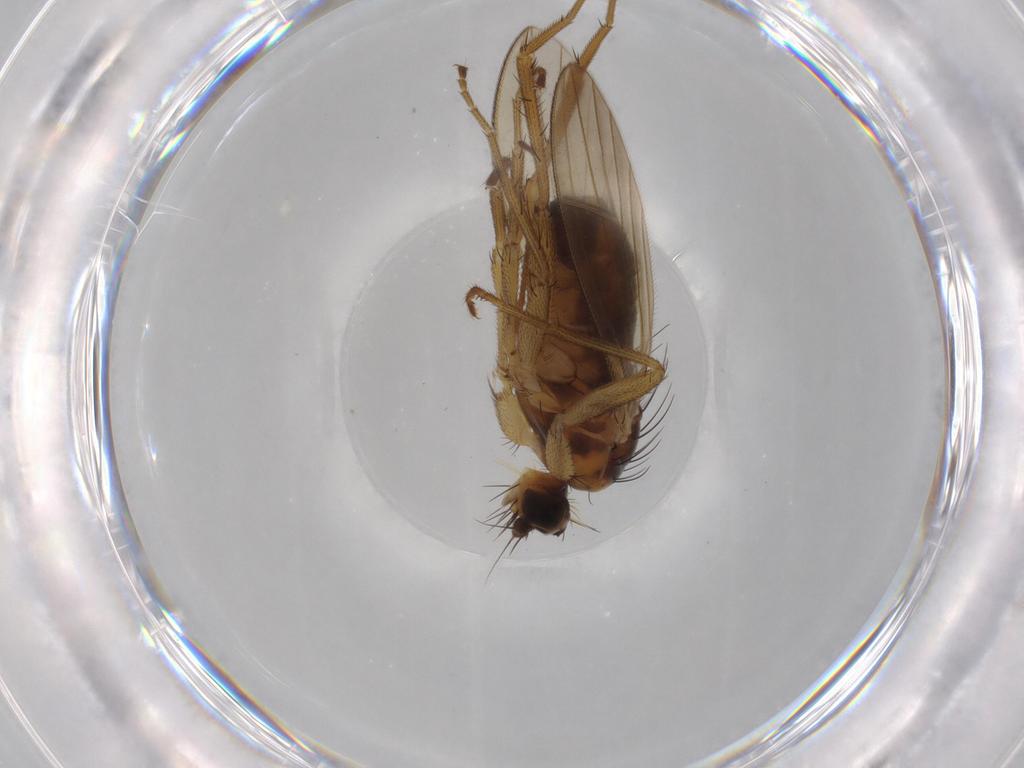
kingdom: Animalia
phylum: Arthropoda
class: Insecta
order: Diptera
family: Lonchopteridae
